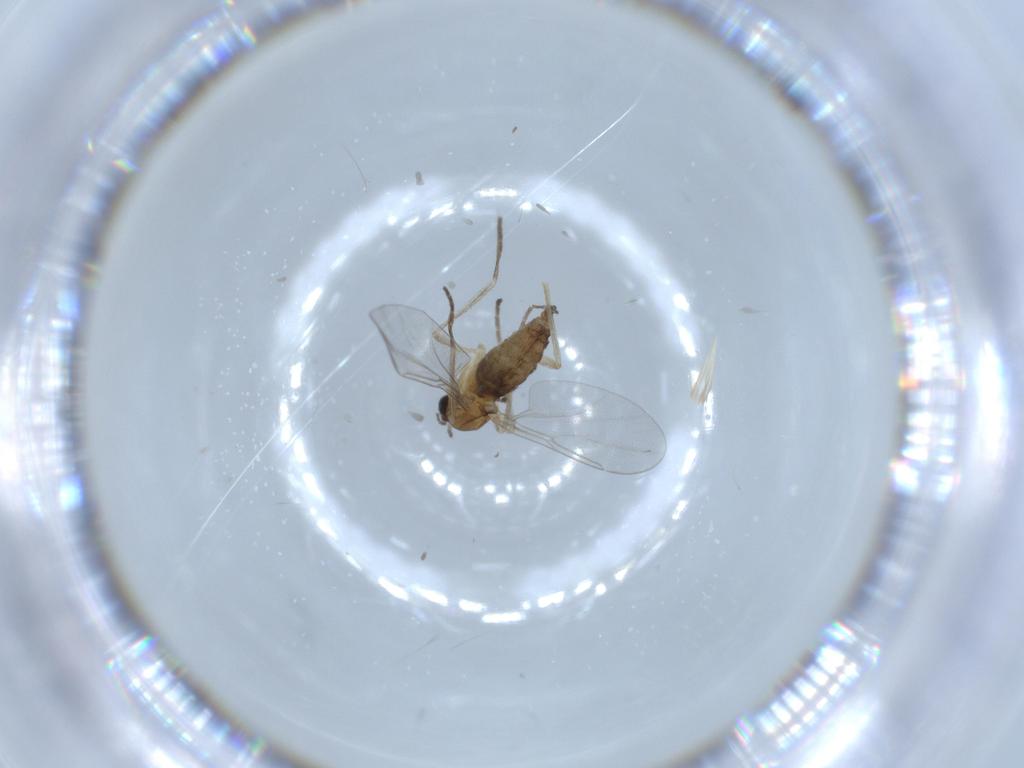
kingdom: Animalia
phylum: Arthropoda
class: Insecta
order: Diptera
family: Cecidomyiidae
